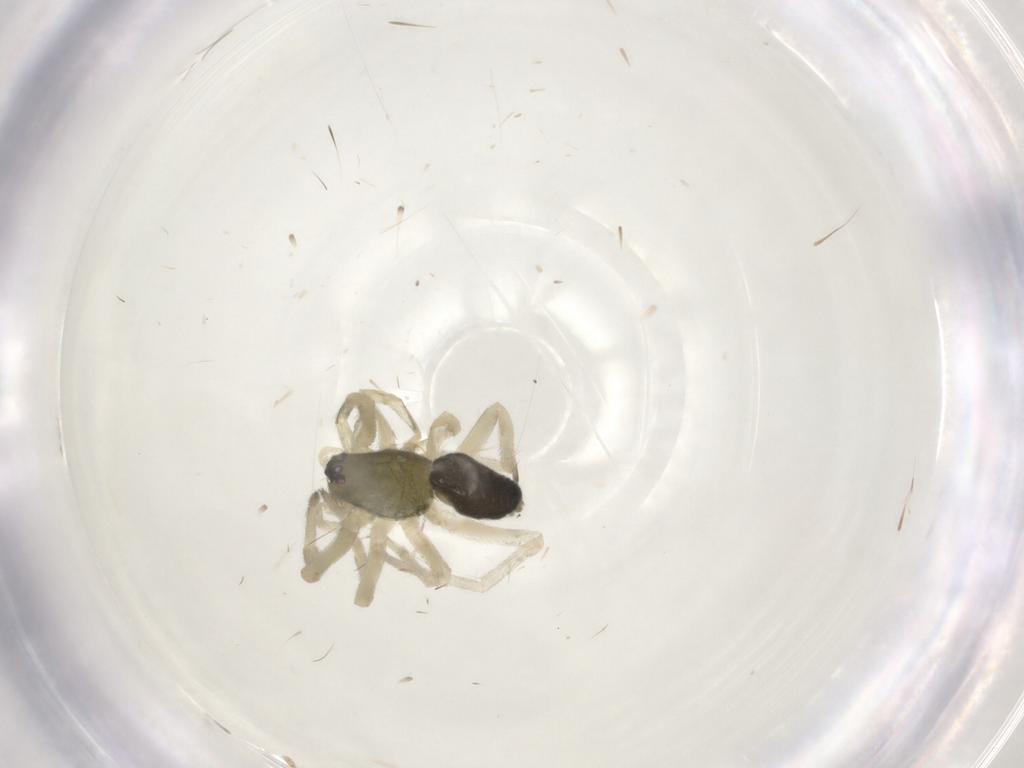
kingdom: Animalia
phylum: Arthropoda
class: Arachnida
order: Araneae
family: Trachelidae
